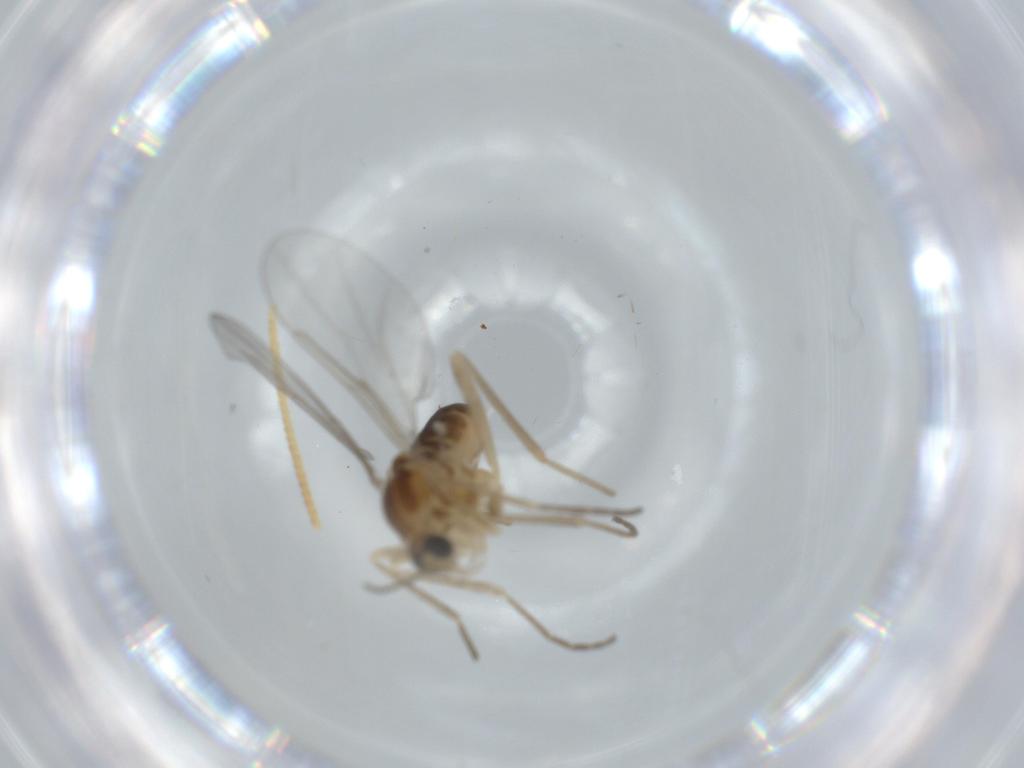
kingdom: Animalia
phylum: Arthropoda
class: Insecta
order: Diptera
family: Cecidomyiidae
